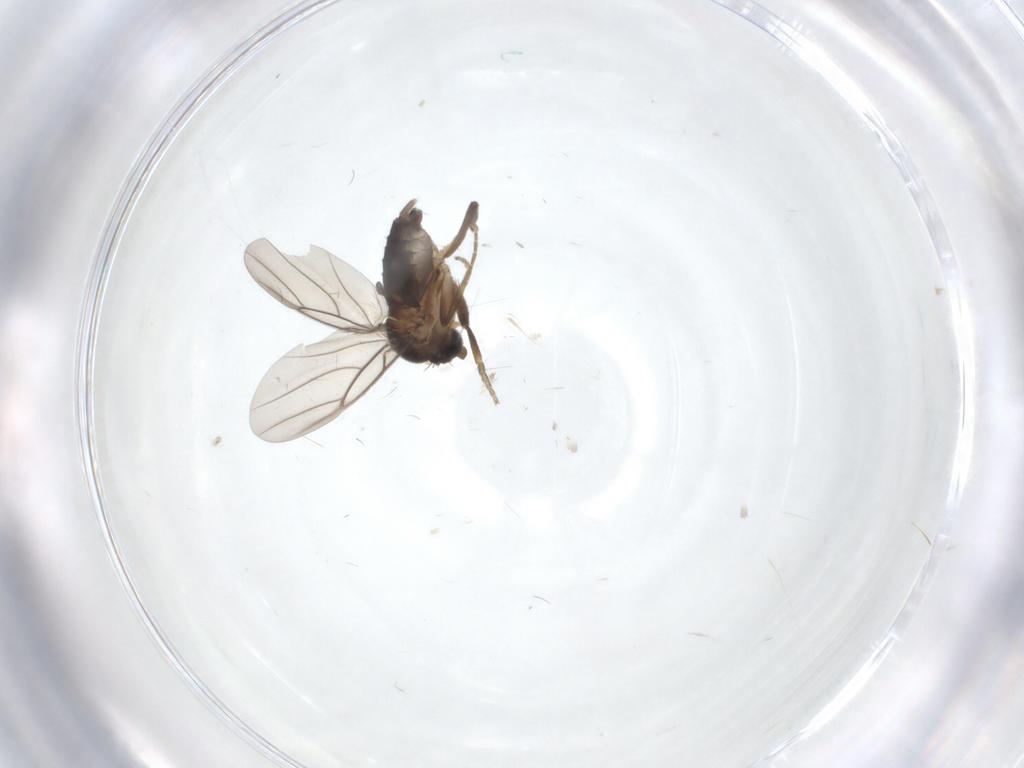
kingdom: Animalia
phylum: Arthropoda
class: Insecta
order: Diptera
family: Phoridae
